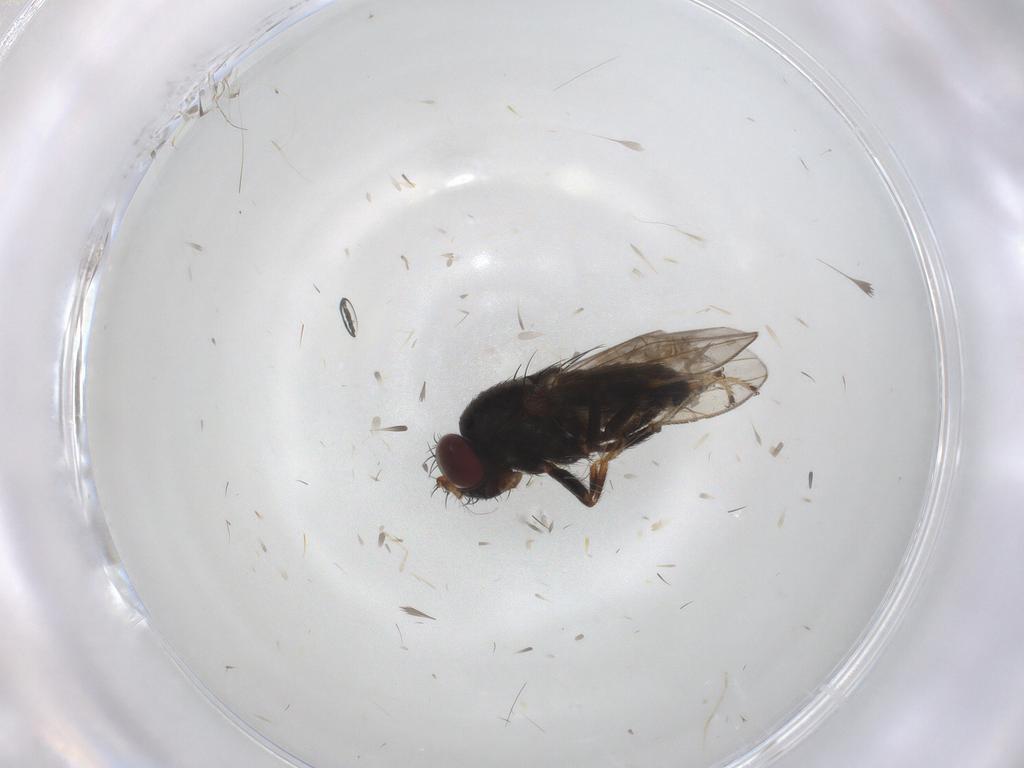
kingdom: Animalia
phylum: Arthropoda
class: Insecta
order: Diptera
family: Ephydridae
